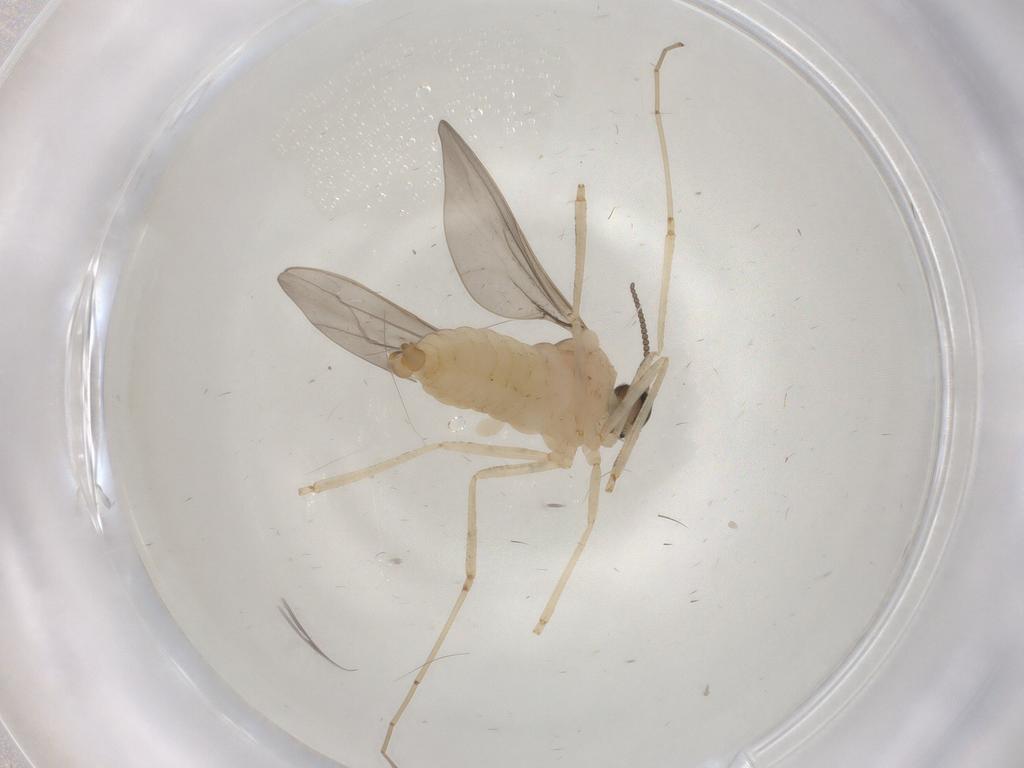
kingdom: Animalia
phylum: Arthropoda
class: Insecta
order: Diptera
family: Cecidomyiidae
